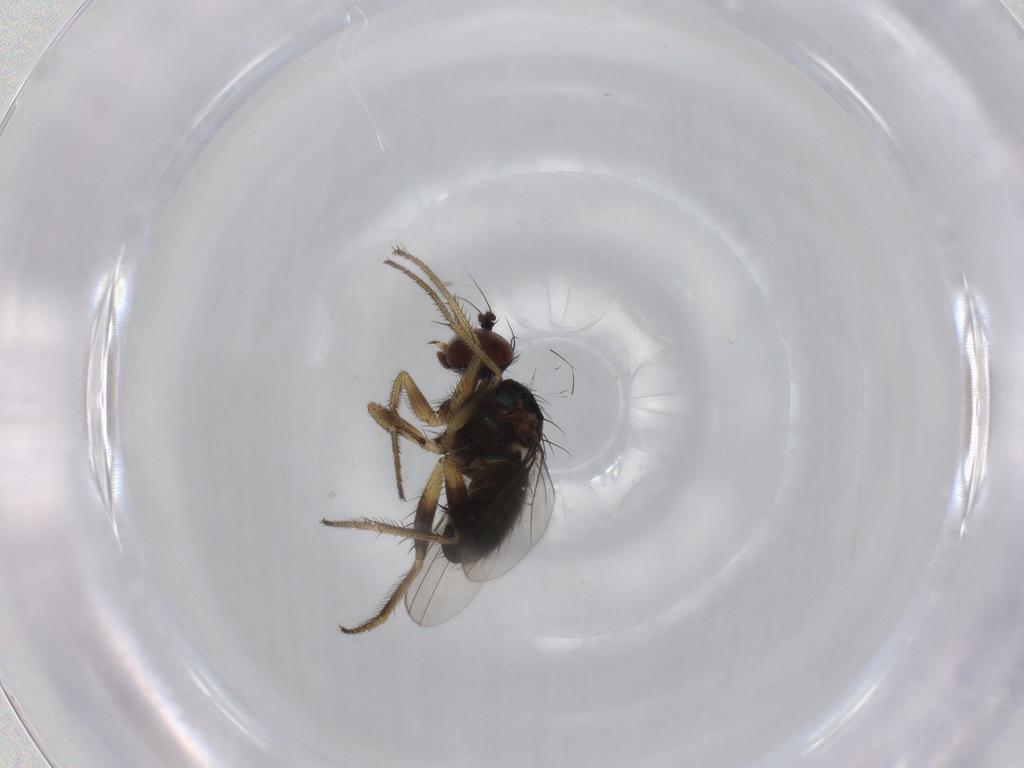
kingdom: Animalia
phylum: Arthropoda
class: Insecta
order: Diptera
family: Dolichopodidae
